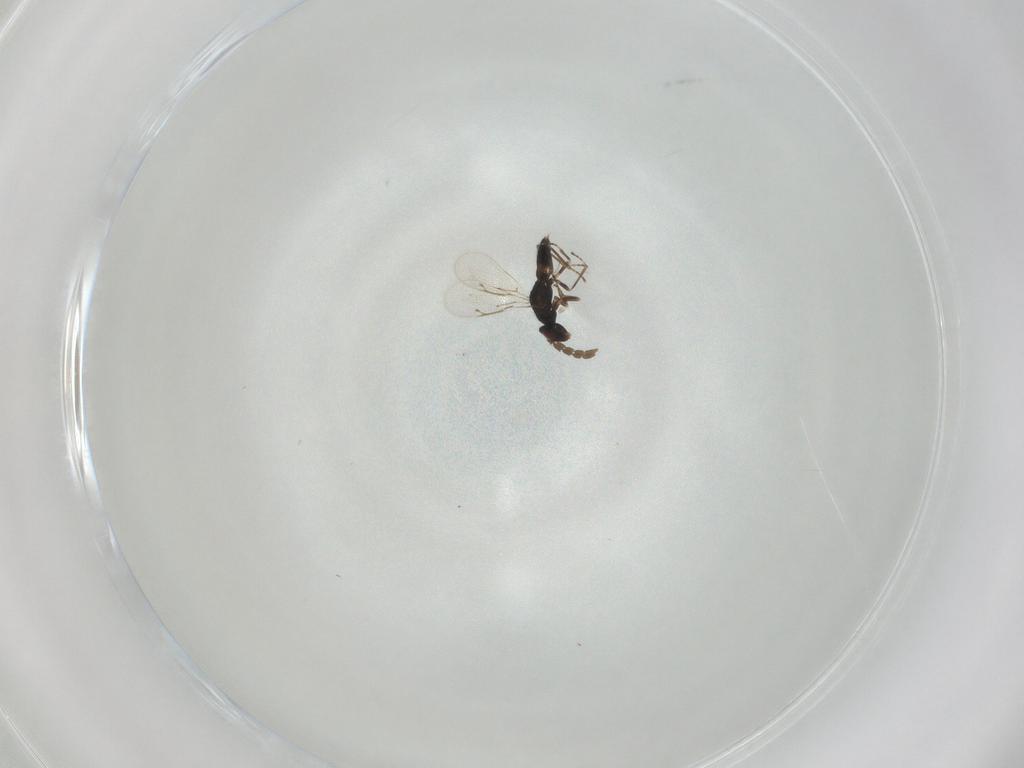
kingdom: Animalia
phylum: Arthropoda
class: Insecta
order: Hymenoptera
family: Eulophidae
